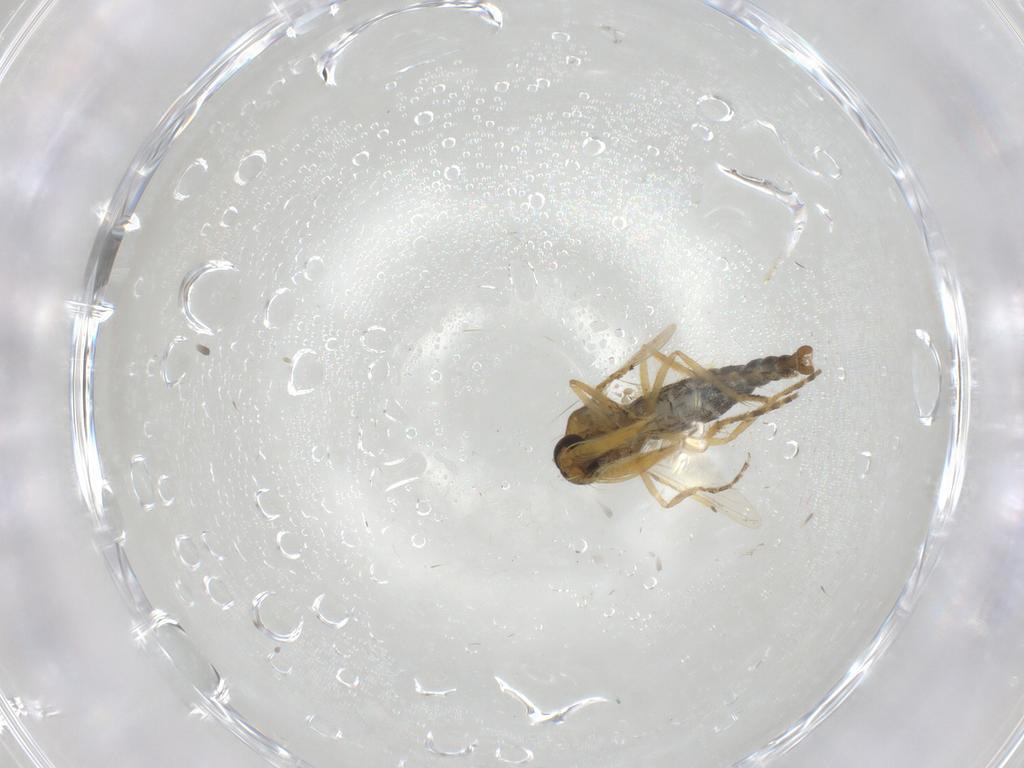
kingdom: Animalia
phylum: Arthropoda
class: Insecta
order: Diptera
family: Ceratopogonidae
